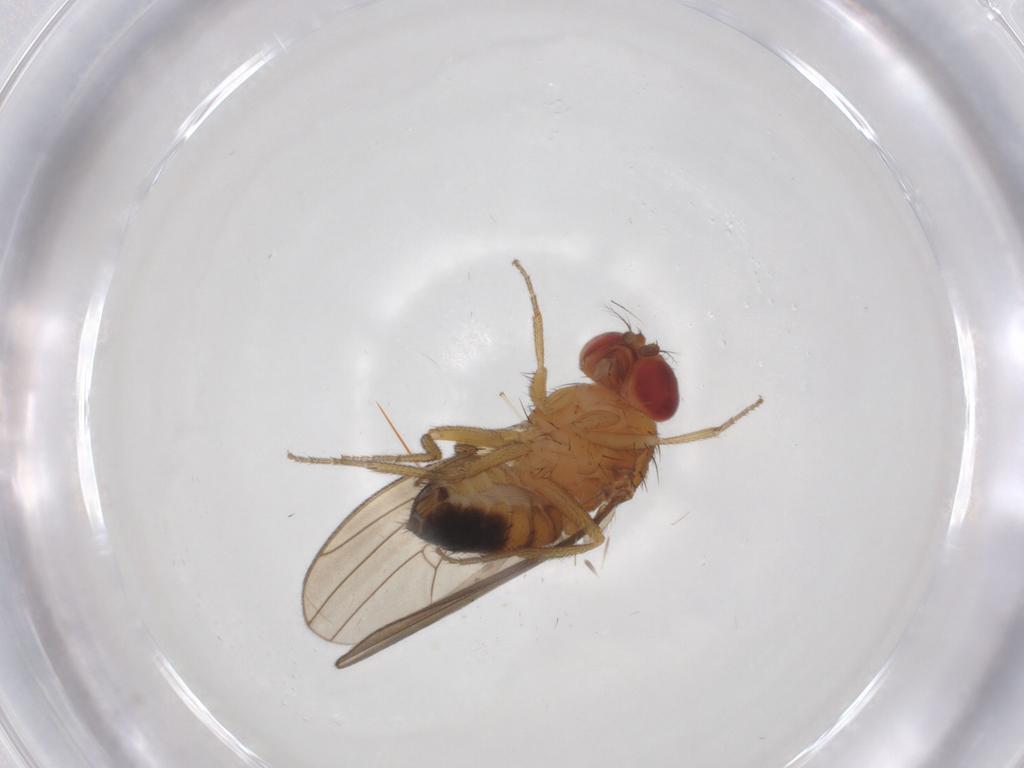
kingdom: Animalia
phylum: Arthropoda
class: Insecta
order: Diptera
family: Drosophilidae
